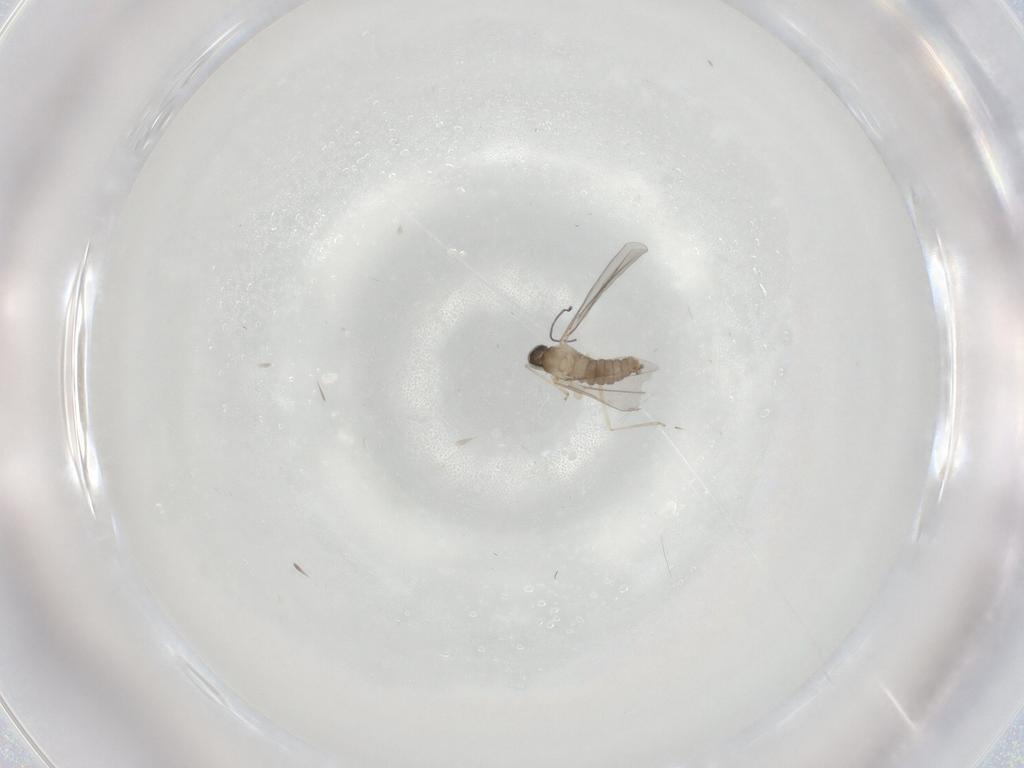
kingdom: Animalia
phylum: Arthropoda
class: Insecta
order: Diptera
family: Cecidomyiidae
